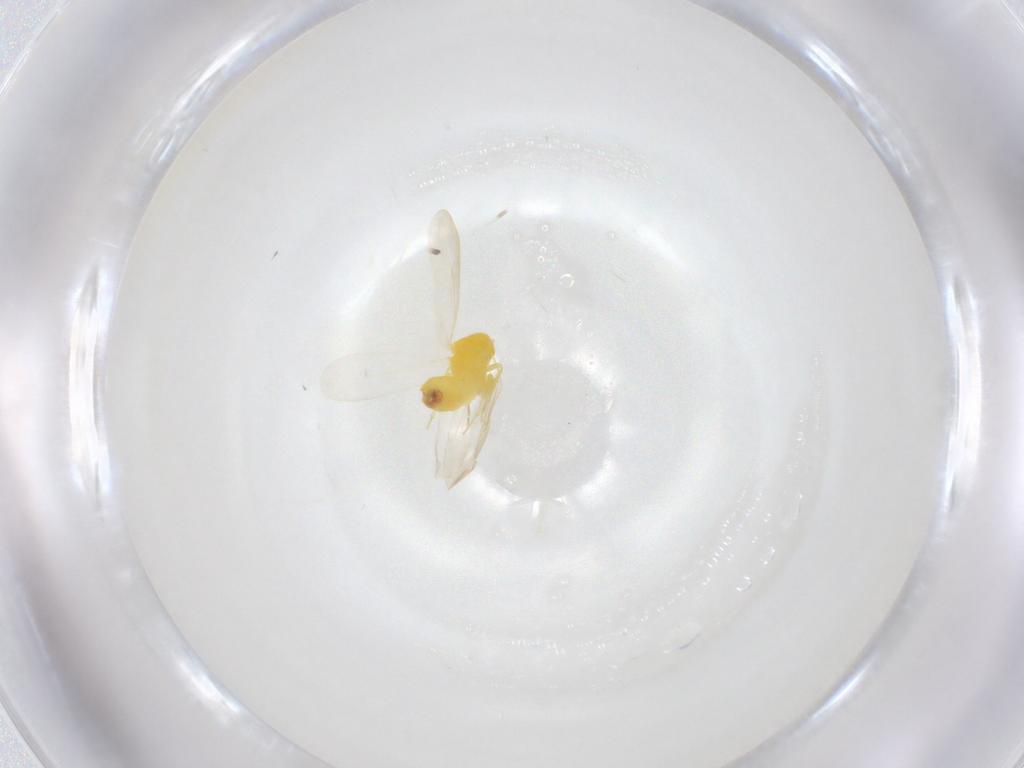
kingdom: Animalia
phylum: Arthropoda
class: Insecta
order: Hemiptera
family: Aleyrodidae
